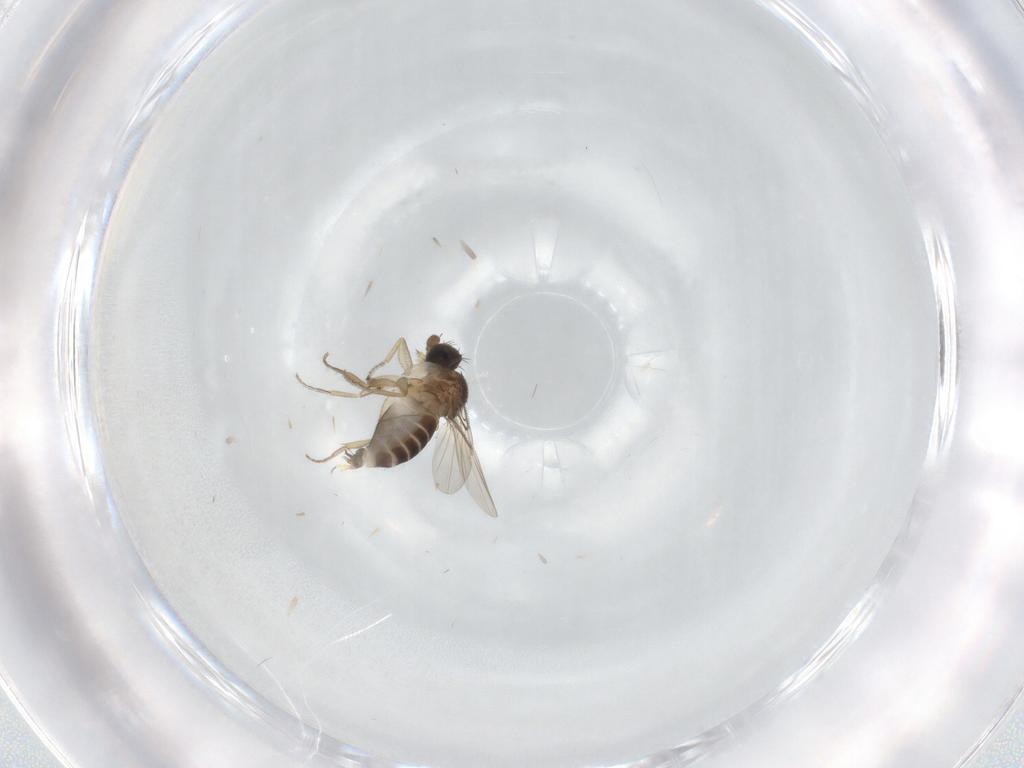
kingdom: Animalia
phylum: Arthropoda
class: Insecta
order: Diptera
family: Phoridae
